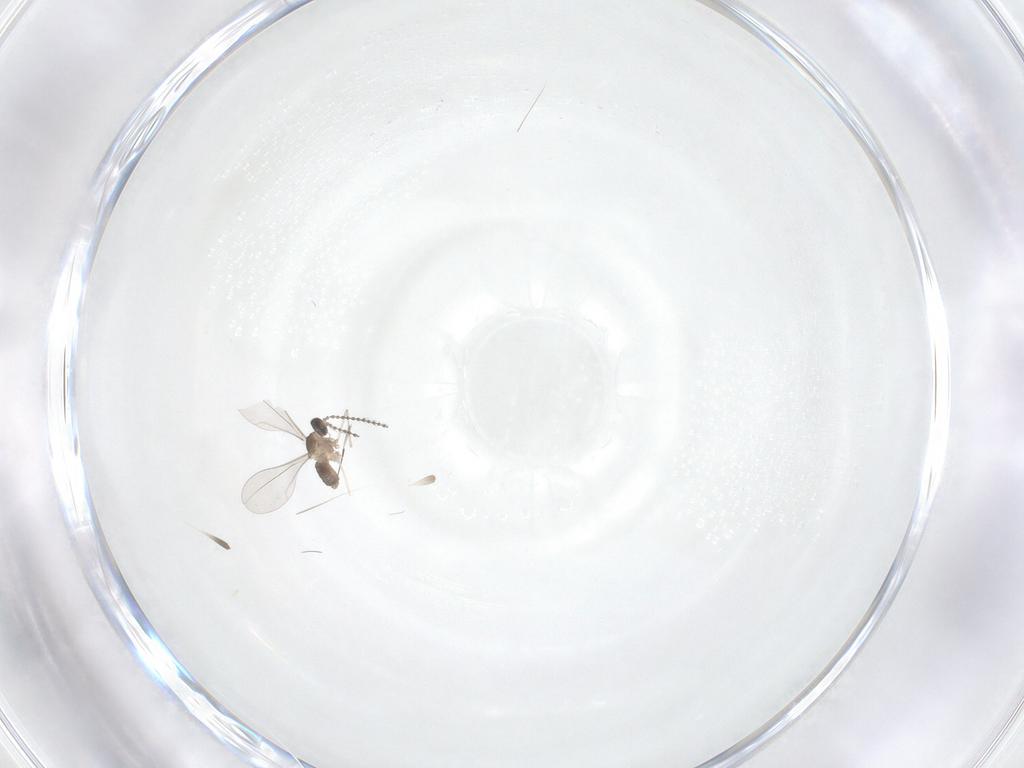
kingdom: Animalia
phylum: Arthropoda
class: Insecta
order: Diptera
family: Cecidomyiidae
